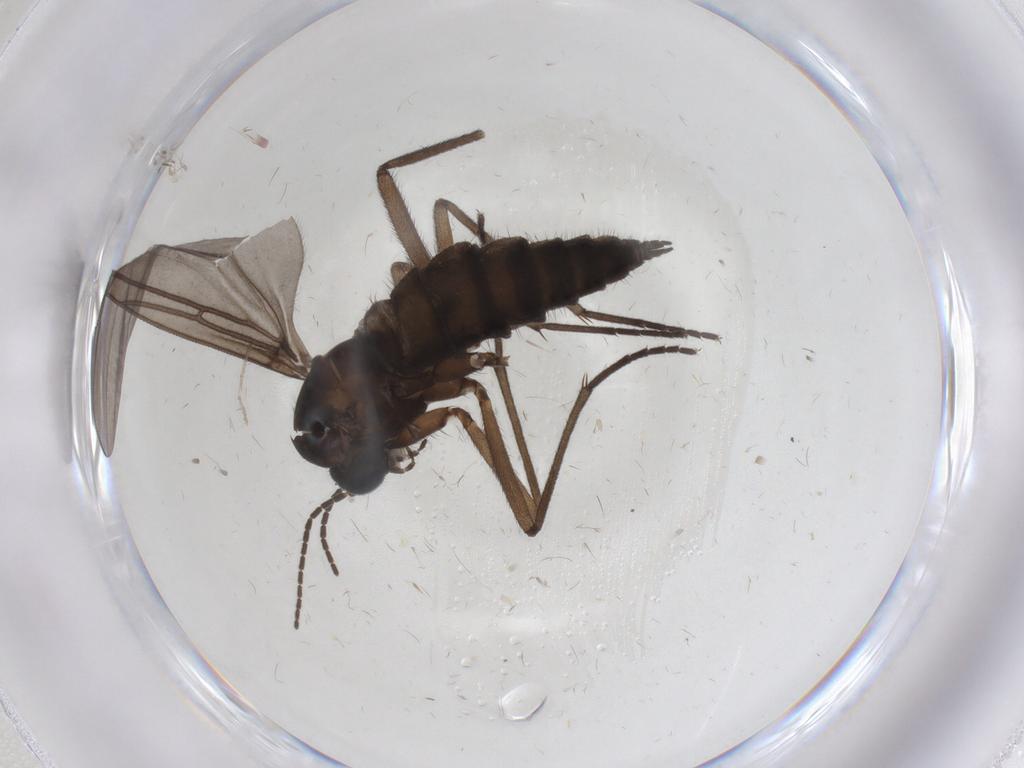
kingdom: Animalia
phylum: Arthropoda
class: Insecta
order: Diptera
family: Sciaridae
